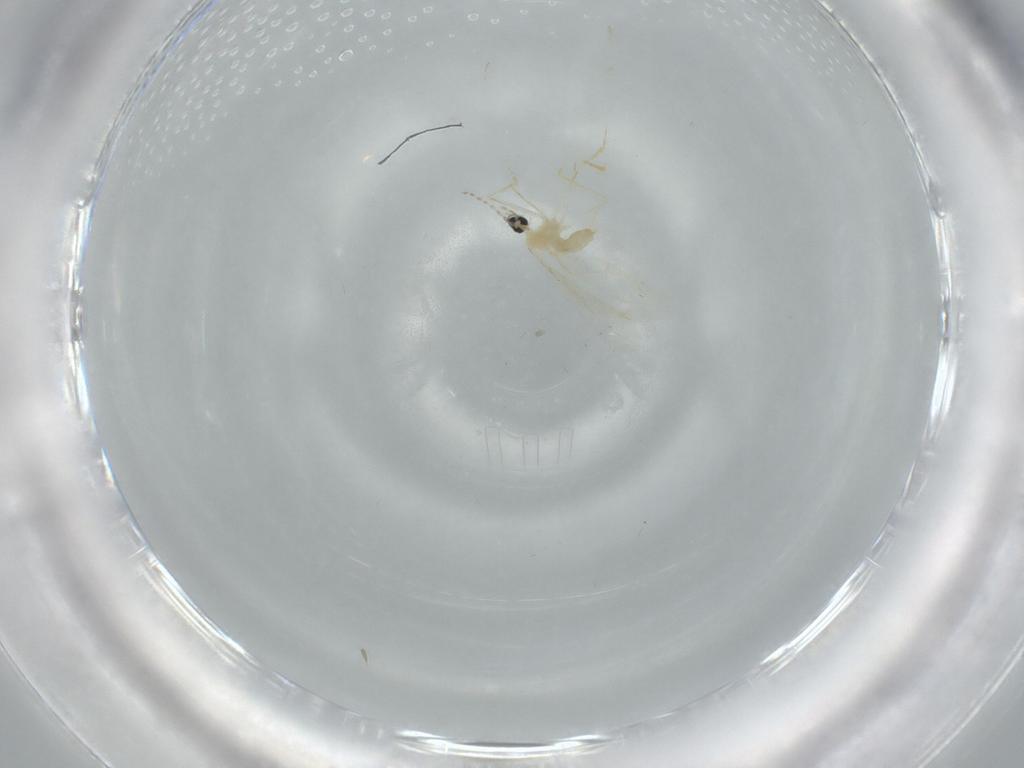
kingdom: Animalia
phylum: Arthropoda
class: Insecta
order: Diptera
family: Cecidomyiidae
